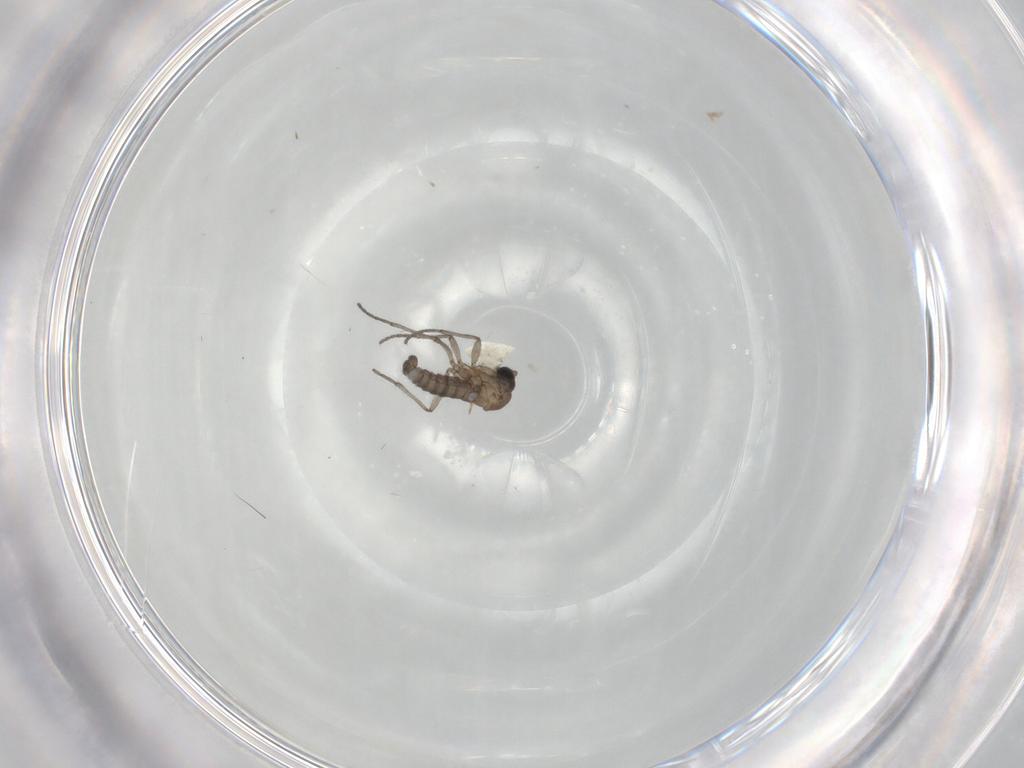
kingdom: Animalia
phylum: Arthropoda
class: Insecta
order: Diptera
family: Sciaridae
